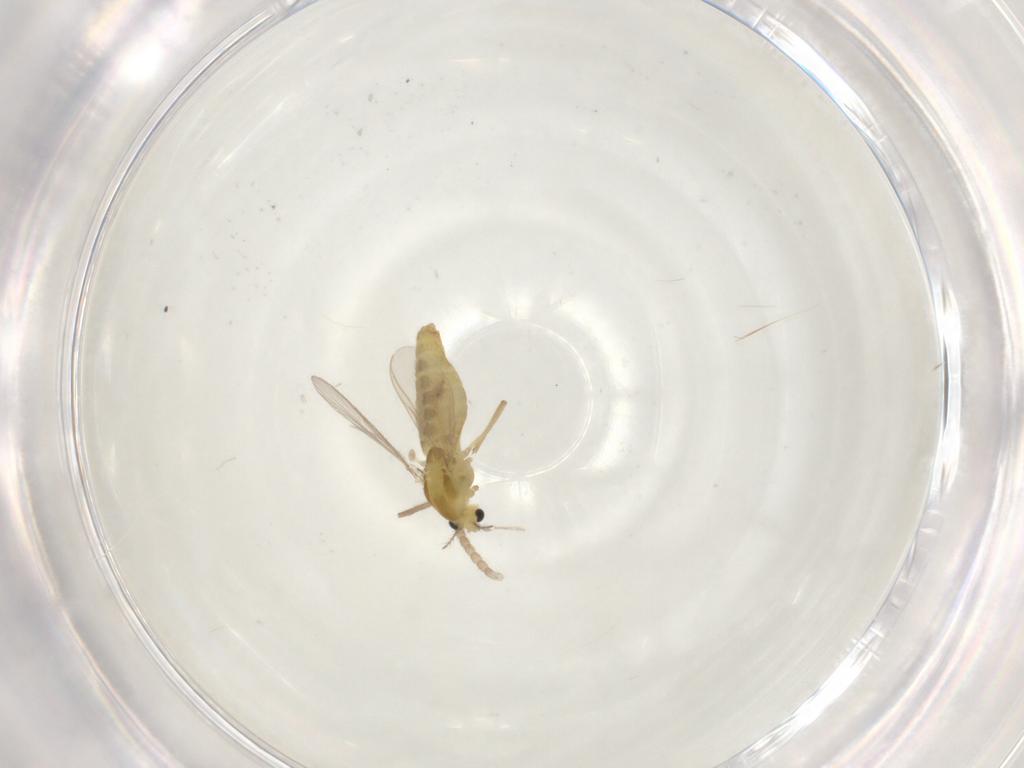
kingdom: Animalia
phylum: Arthropoda
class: Insecta
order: Diptera
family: Chironomidae
